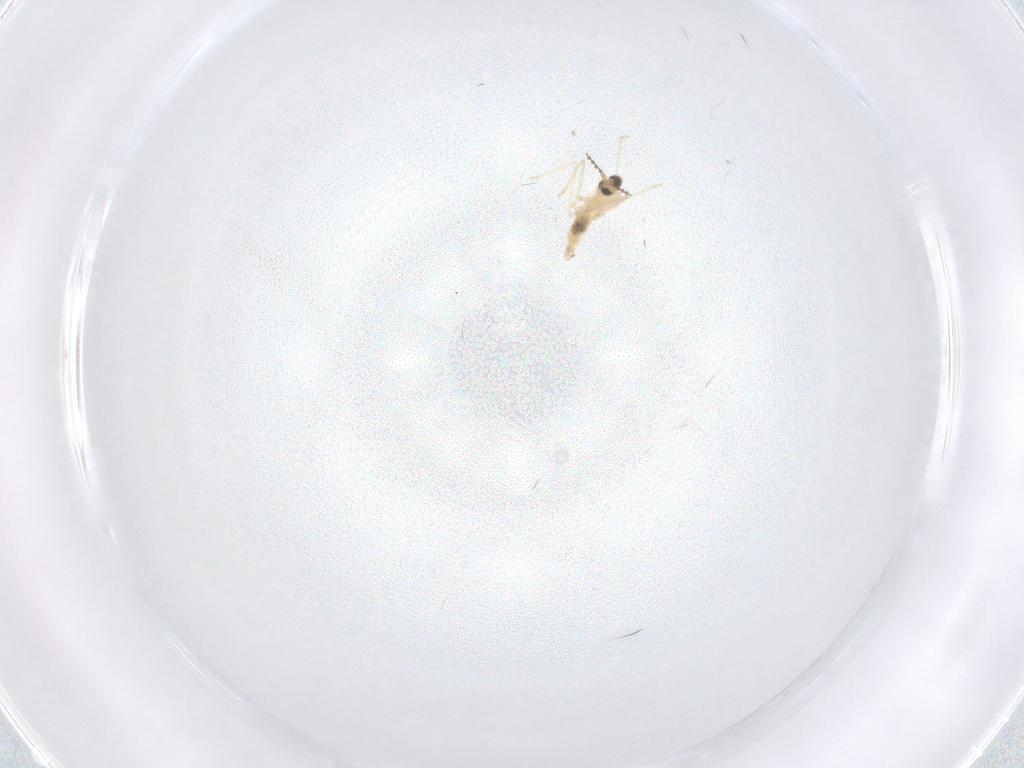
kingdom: Animalia
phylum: Arthropoda
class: Insecta
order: Diptera
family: Cecidomyiidae
